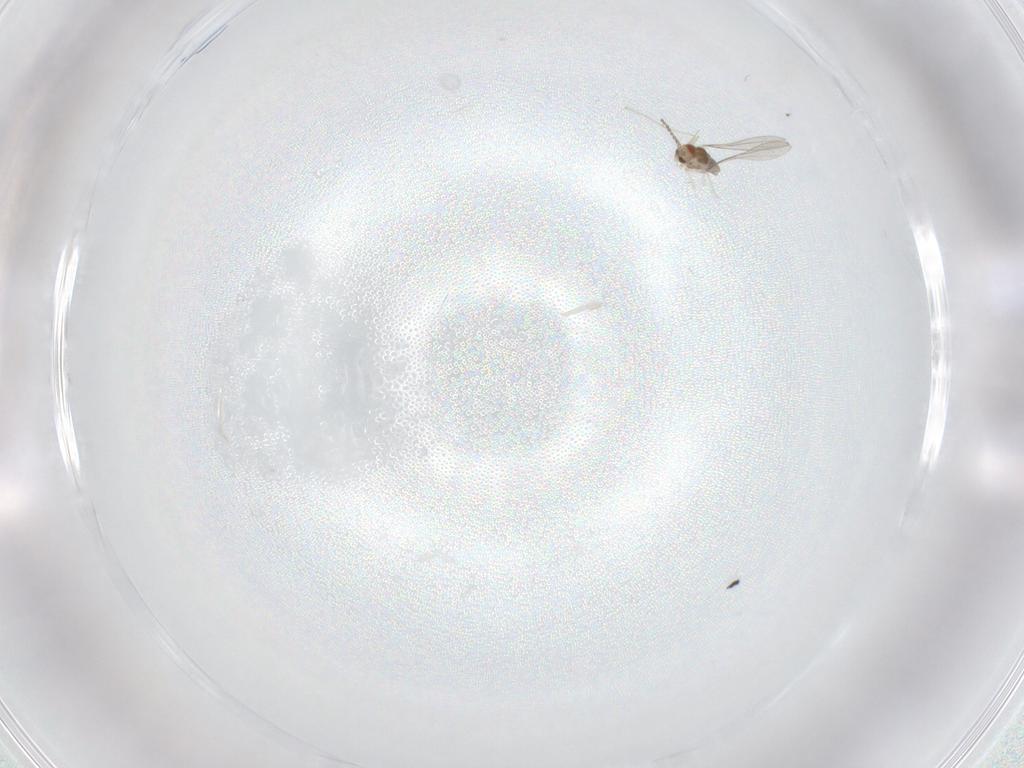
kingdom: Animalia
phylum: Arthropoda
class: Insecta
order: Diptera
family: Cecidomyiidae
